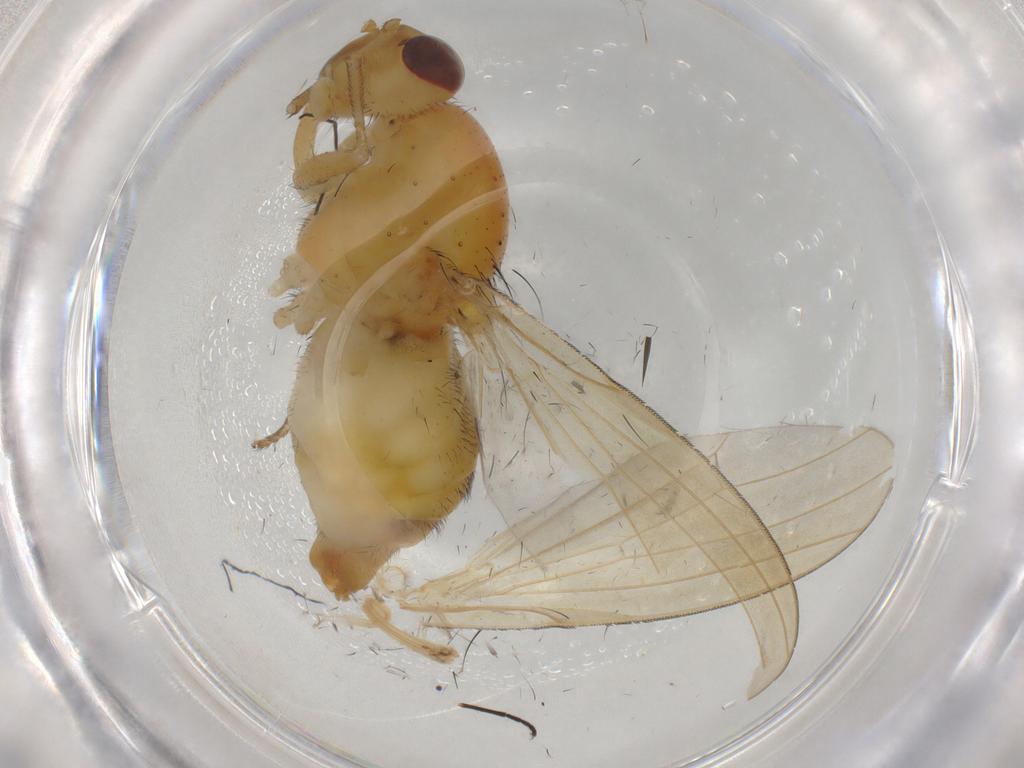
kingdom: Animalia
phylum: Arthropoda
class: Insecta
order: Diptera
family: Lauxaniidae
